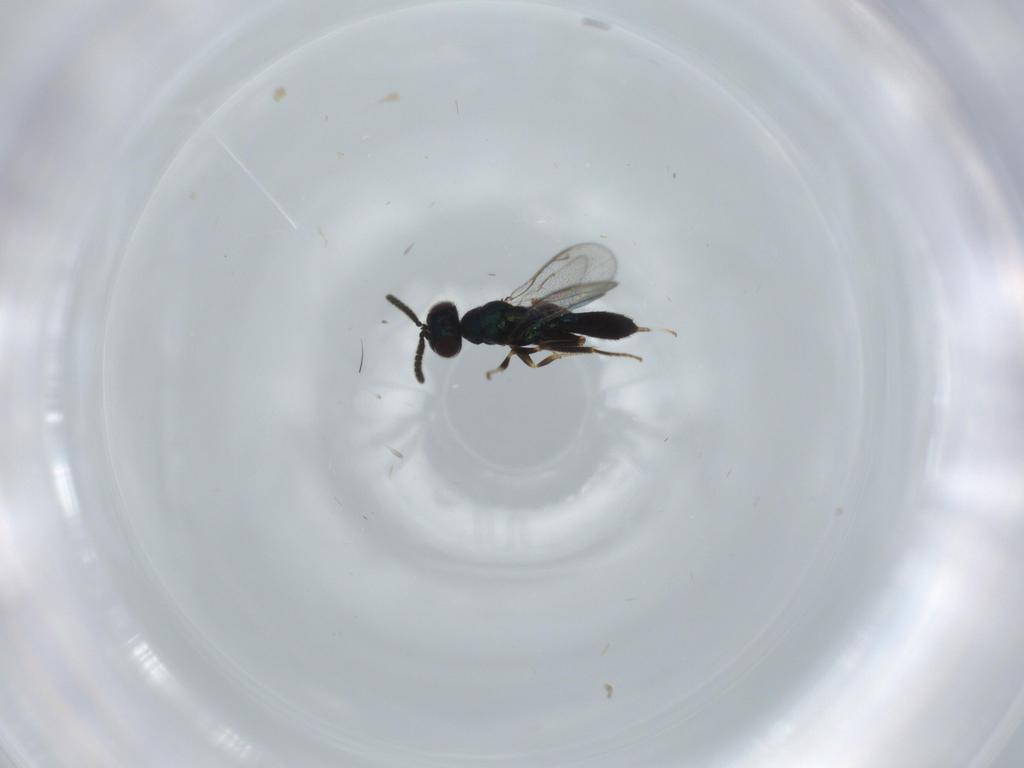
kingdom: Animalia
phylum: Arthropoda
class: Insecta
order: Hymenoptera
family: Cleonyminae
